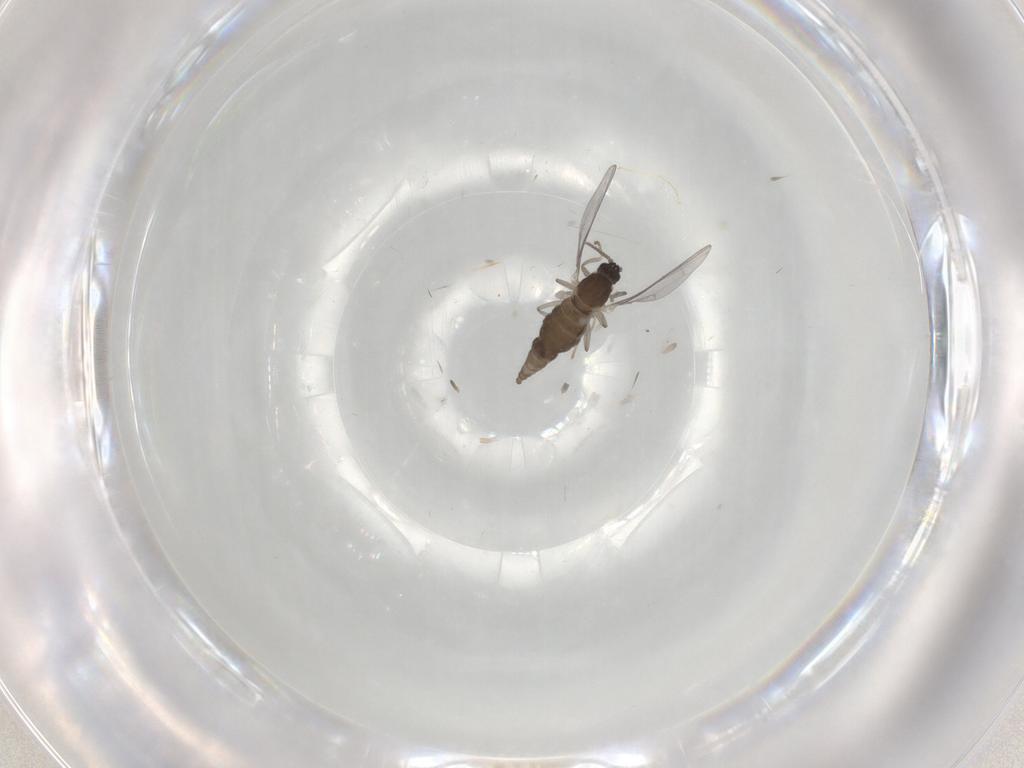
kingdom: Animalia
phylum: Arthropoda
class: Insecta
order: Diptera
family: Cecidomyiidae
